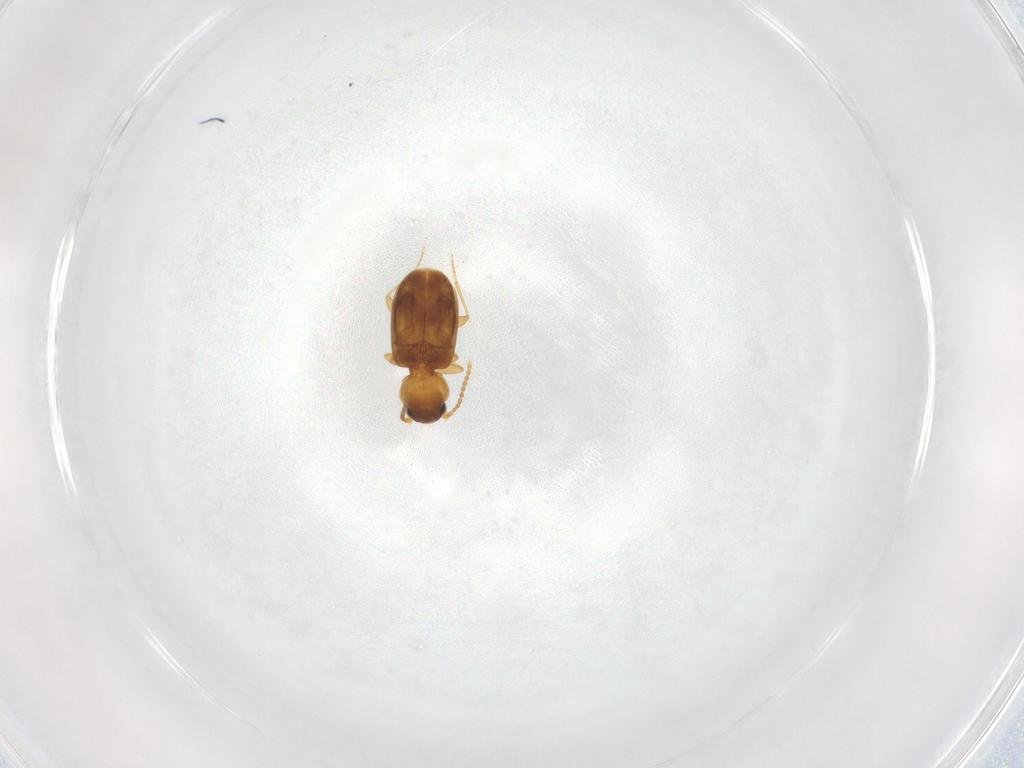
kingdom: Animalia
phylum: Arthropoda
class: Insecta
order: Coleoptera
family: Carabidae
